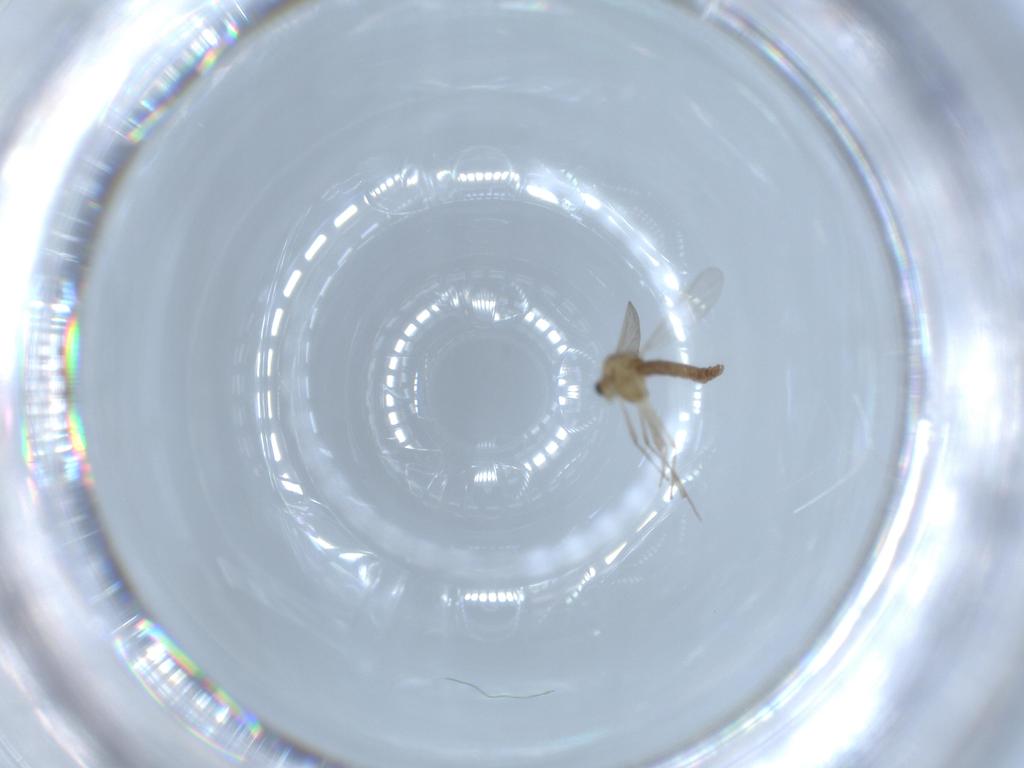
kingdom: Animalia
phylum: Arthropoda
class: Insecta
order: Diptera
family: Chironomidae
